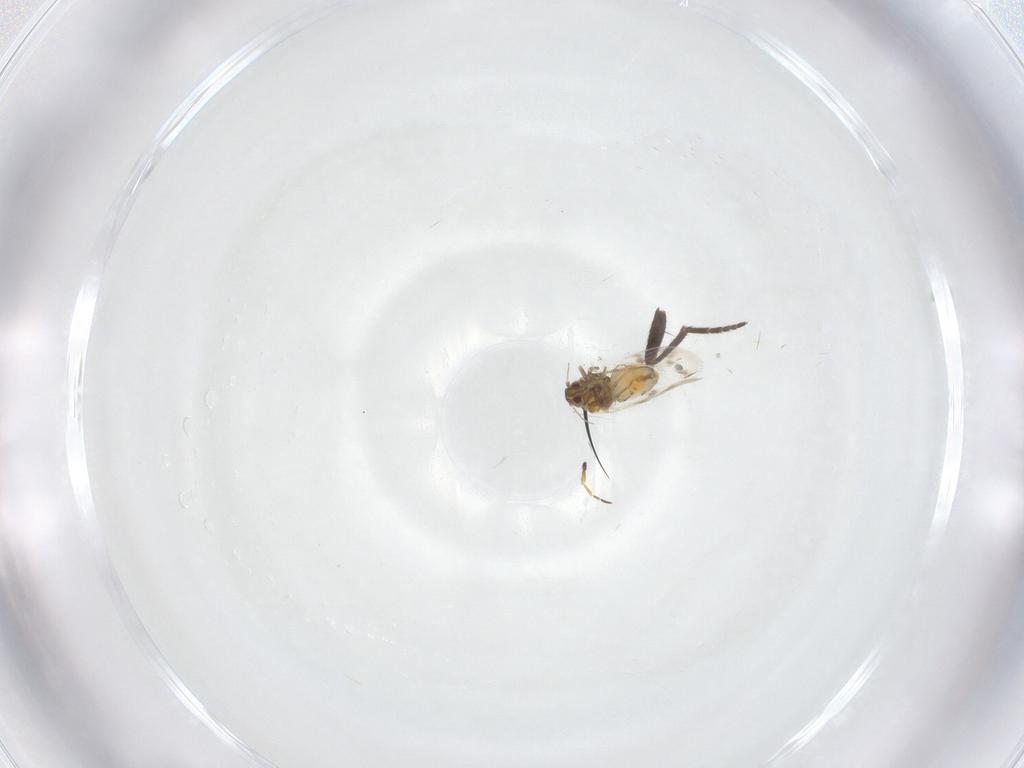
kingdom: Animalia
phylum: Arthropoda
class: Insecta
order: Hymenoptera
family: Braconidae
